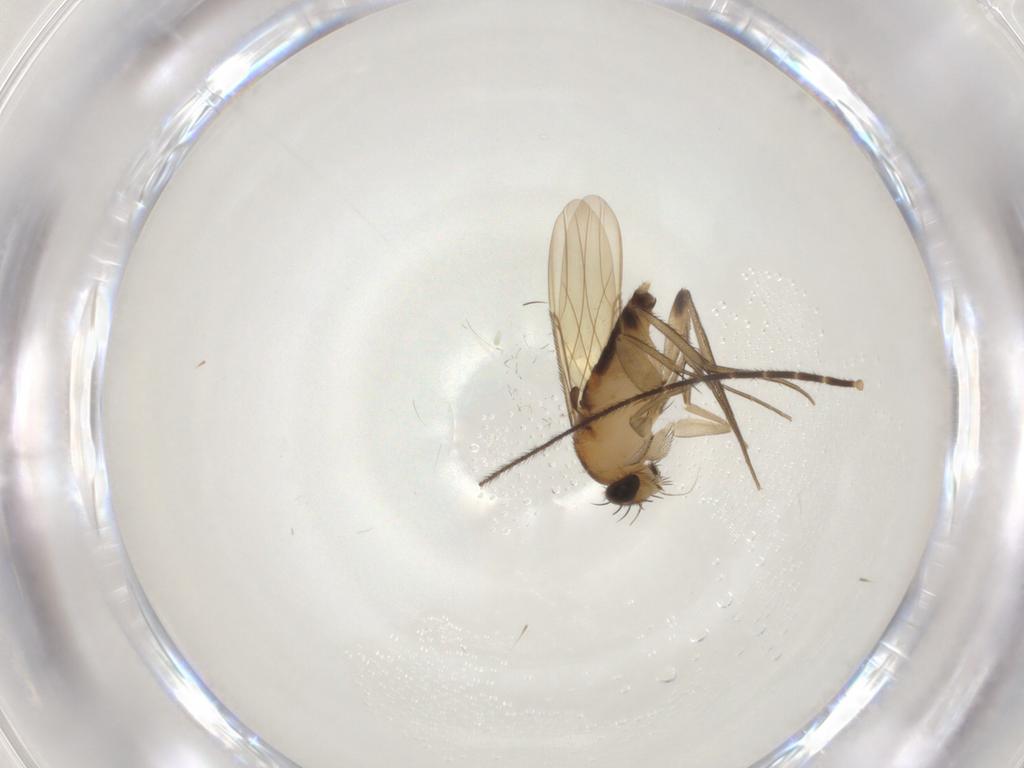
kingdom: Animalia
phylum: Arthropoda
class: Insecta
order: Diptera
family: Phoridae
